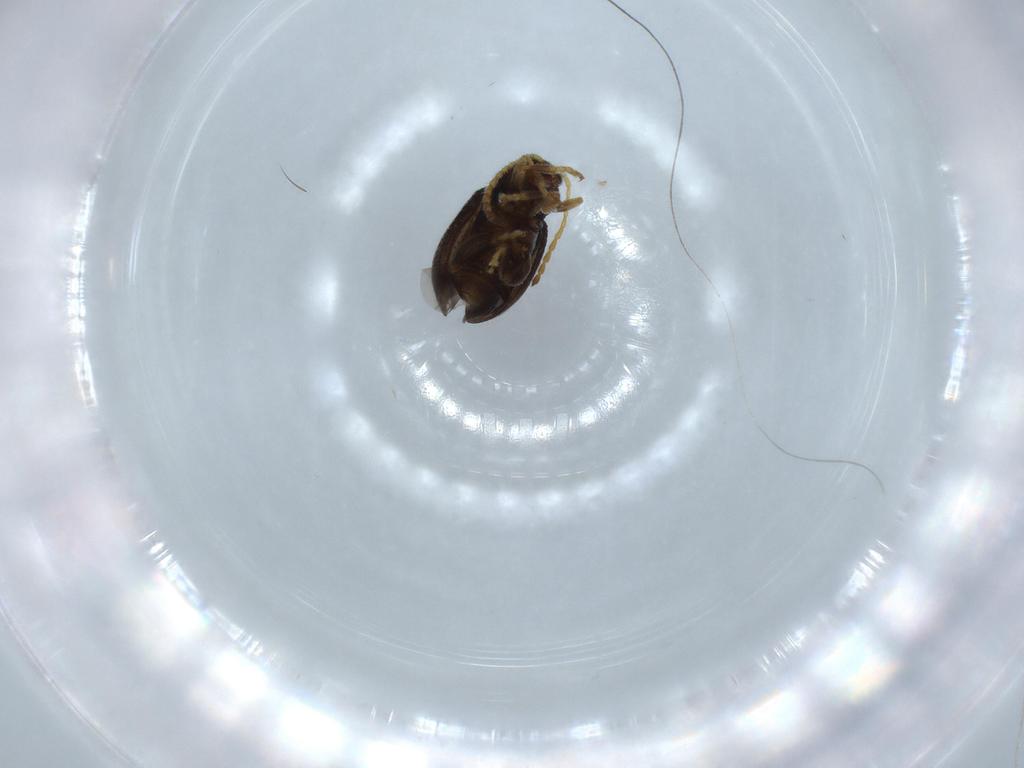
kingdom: Animalia
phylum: Arthropoda
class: Insecta
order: Coleoptera
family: Chrysomelidae
